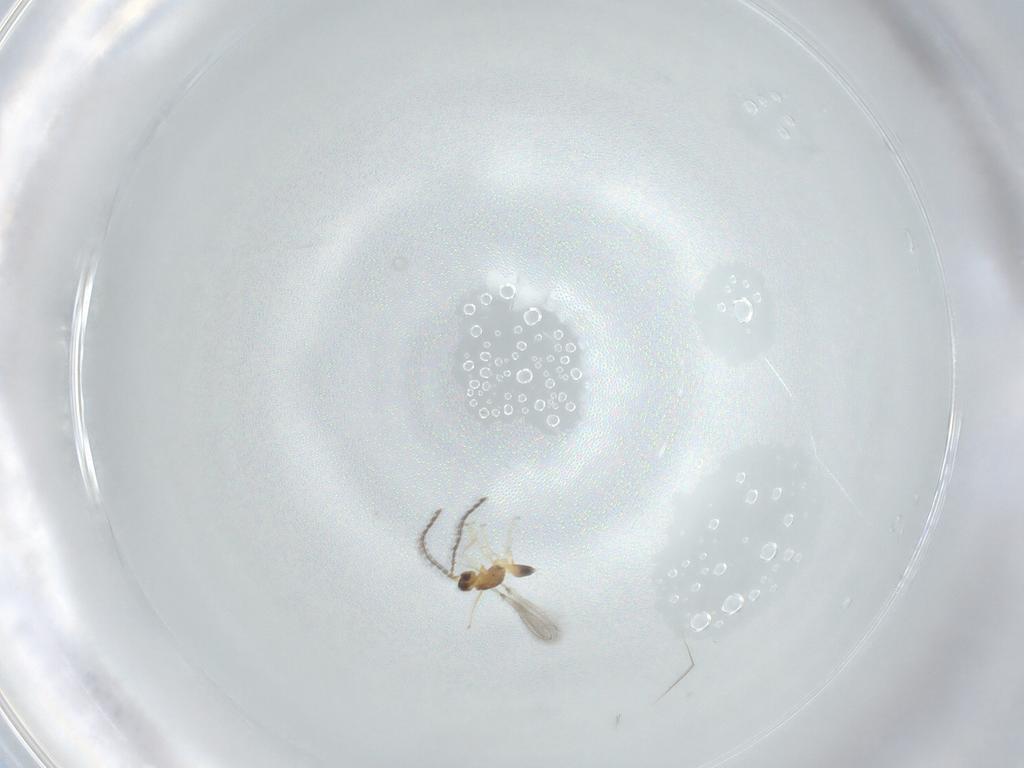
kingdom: Animalia
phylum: Arthropoda
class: Insecta
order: Hymenoptera
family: Mymaridae
